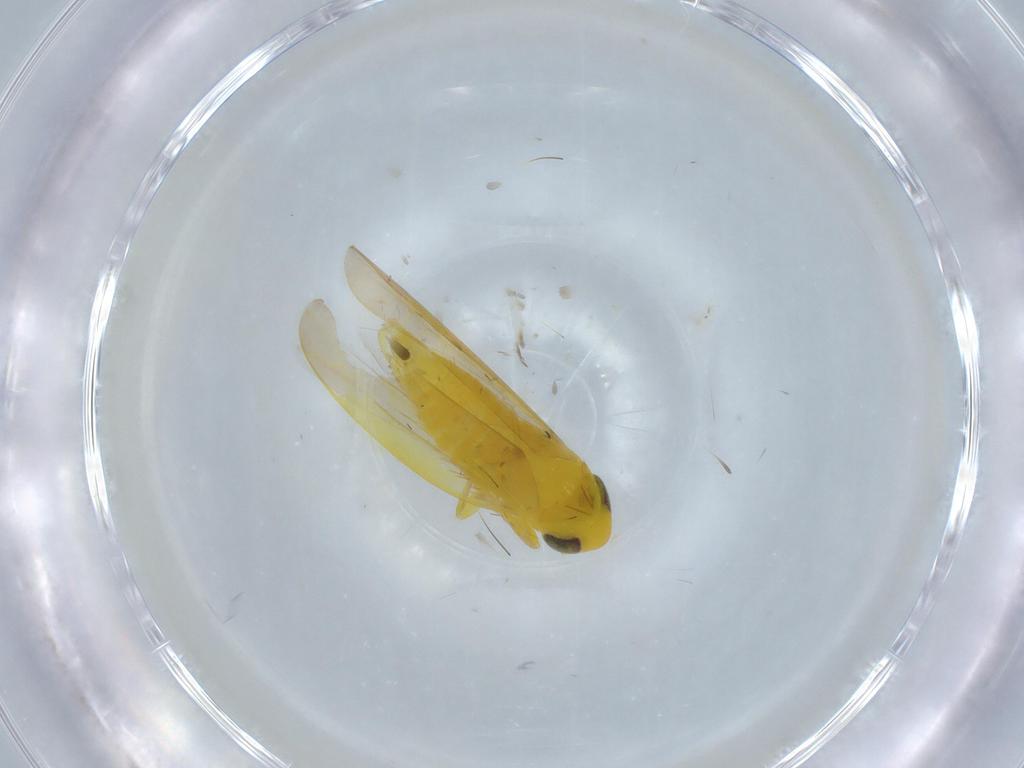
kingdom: Animalia
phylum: Arthropoda
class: Insecta
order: Hemiptera
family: Cicadellidae
